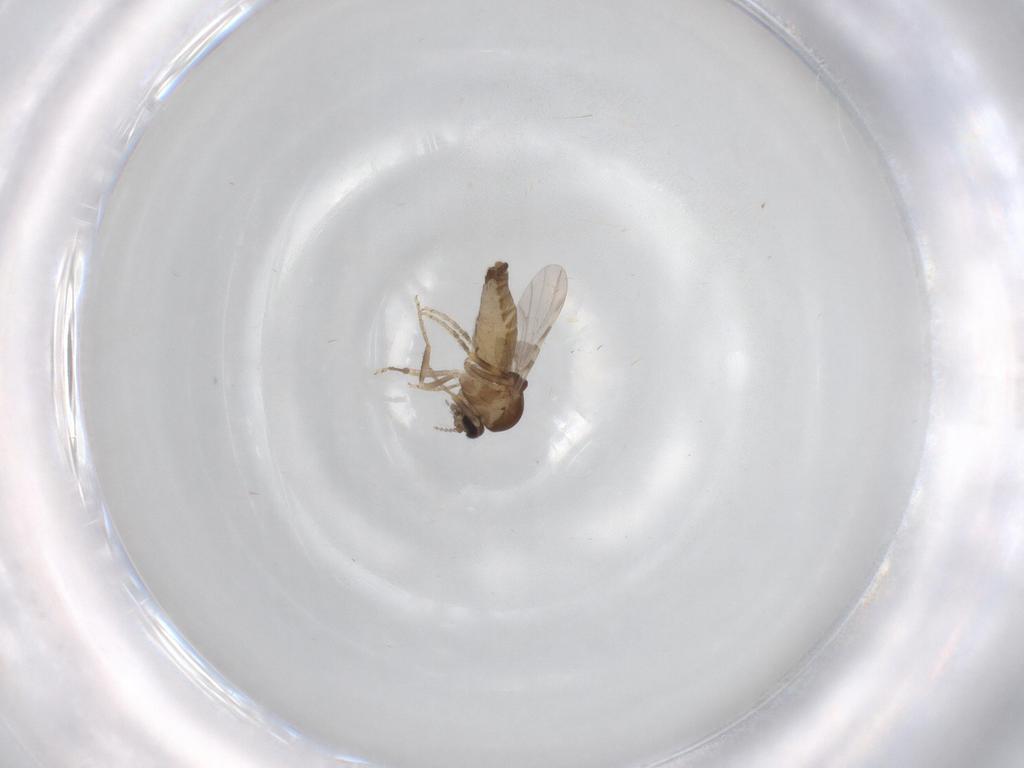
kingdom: Animalia
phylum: Arthropoda
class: Insecta
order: Diptera
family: Ceratopogonidae
